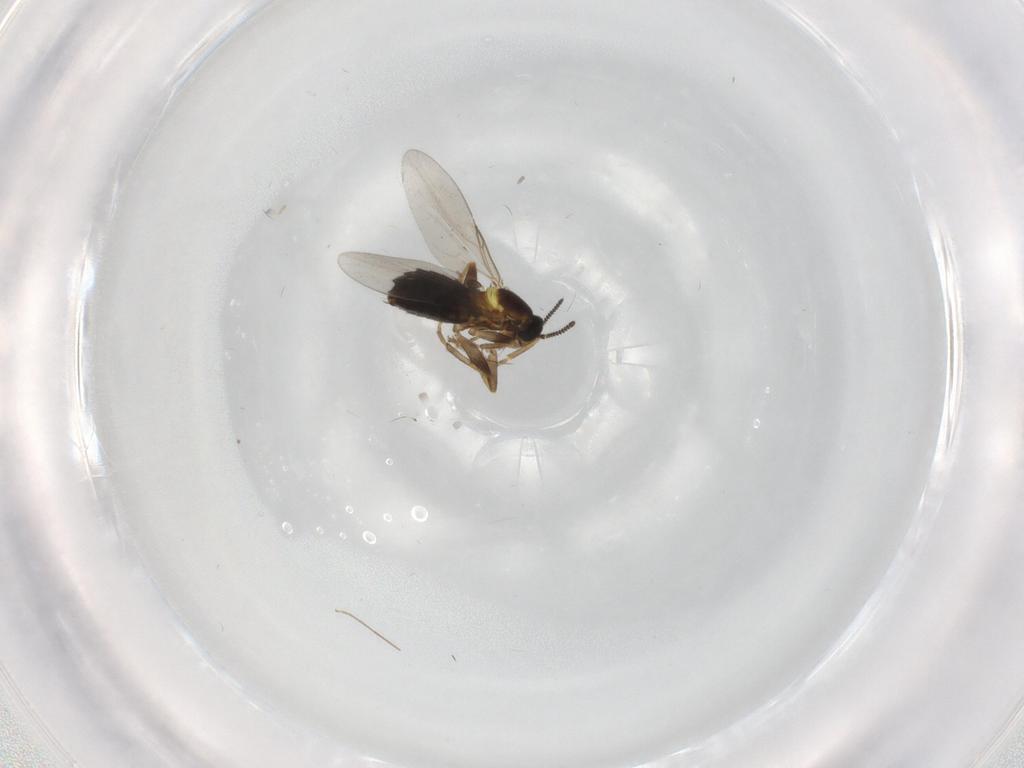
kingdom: Animalia
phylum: Arthropoda
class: Insecta
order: Diptera
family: Scatopsidae
